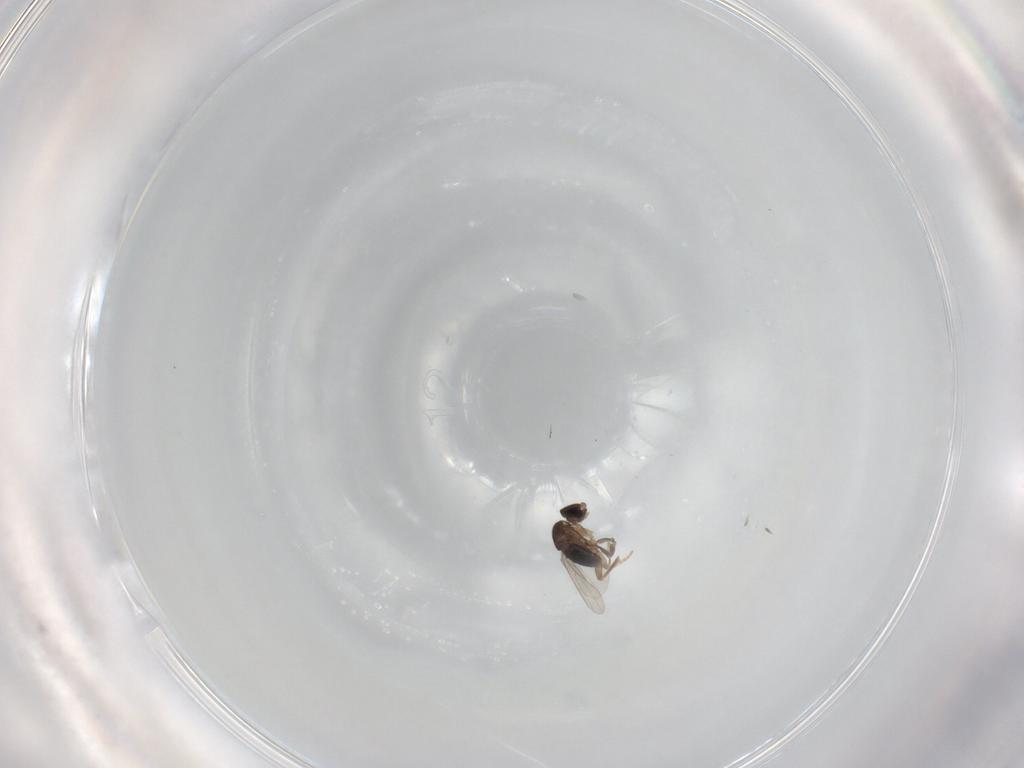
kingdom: Animalia
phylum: Arthropoda
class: Insecta
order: Diptera
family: Phoridae
